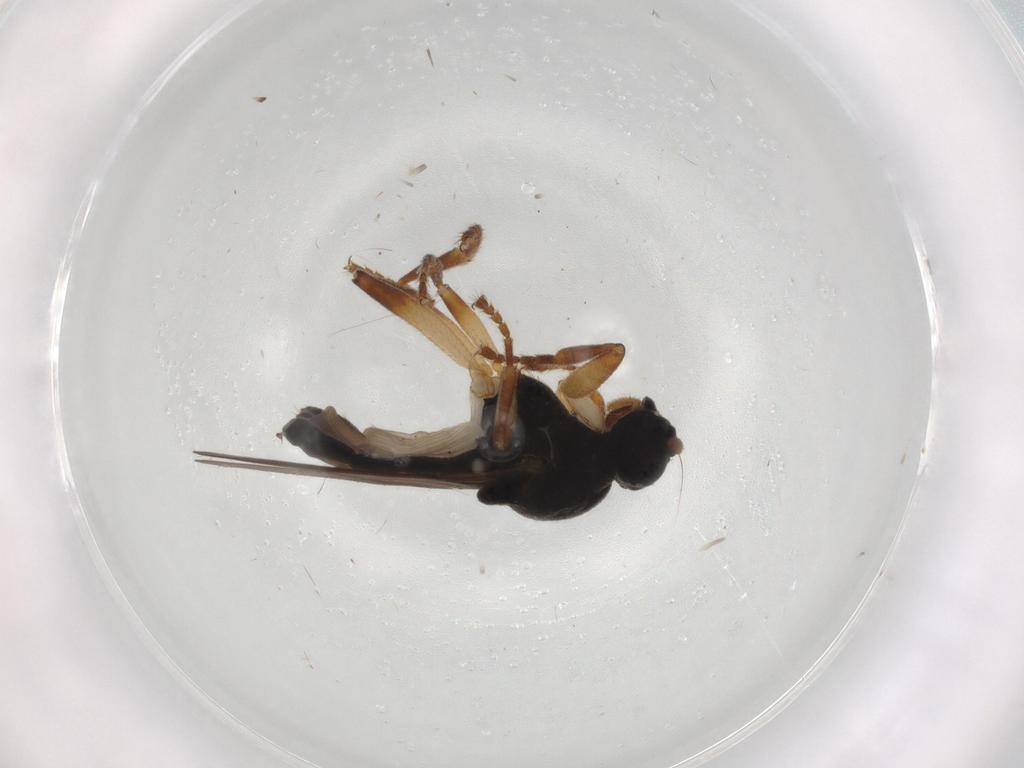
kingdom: Animalia
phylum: Arthropoda
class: Insecta
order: Diptera
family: Sphaeroceridae
